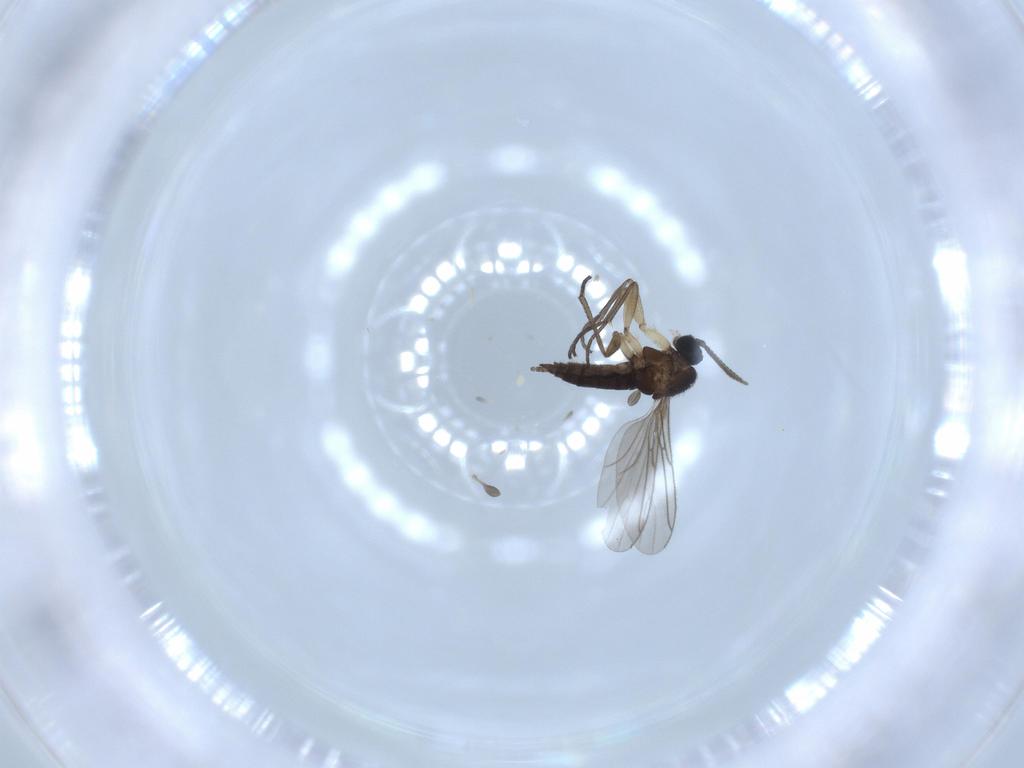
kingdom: Animalia
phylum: Arthropoda
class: Insecta
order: Diptera
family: Sciaridae
